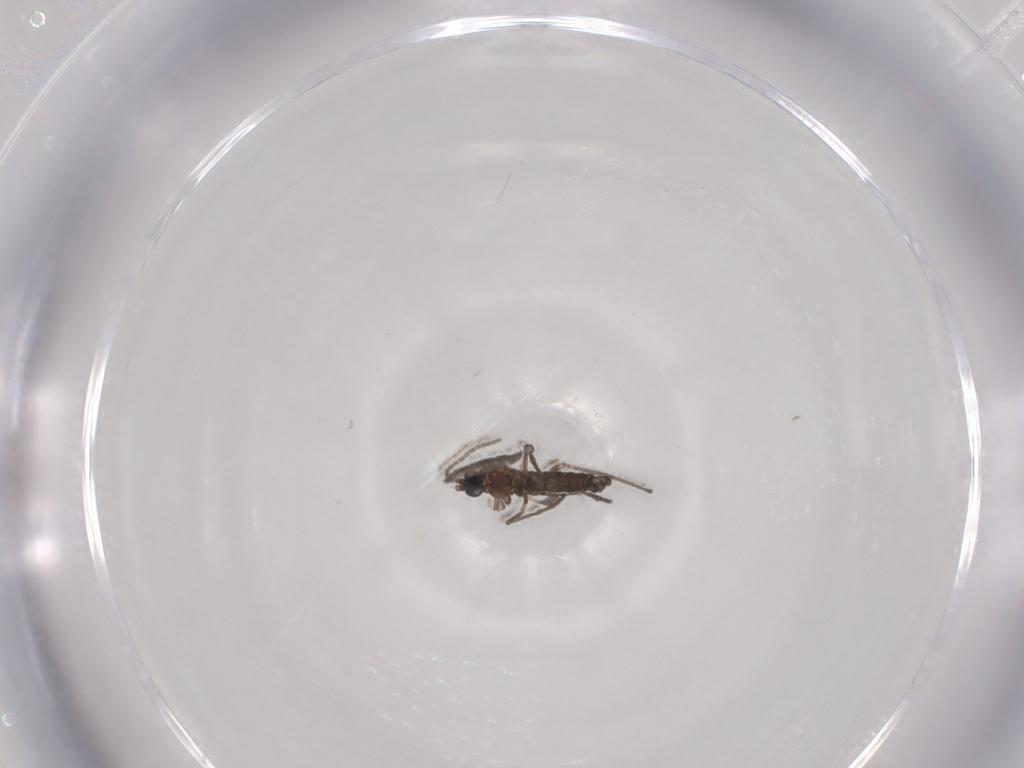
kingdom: Animalia
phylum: Arthropoda
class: Insecta
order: Diptera
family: Sciaridae
